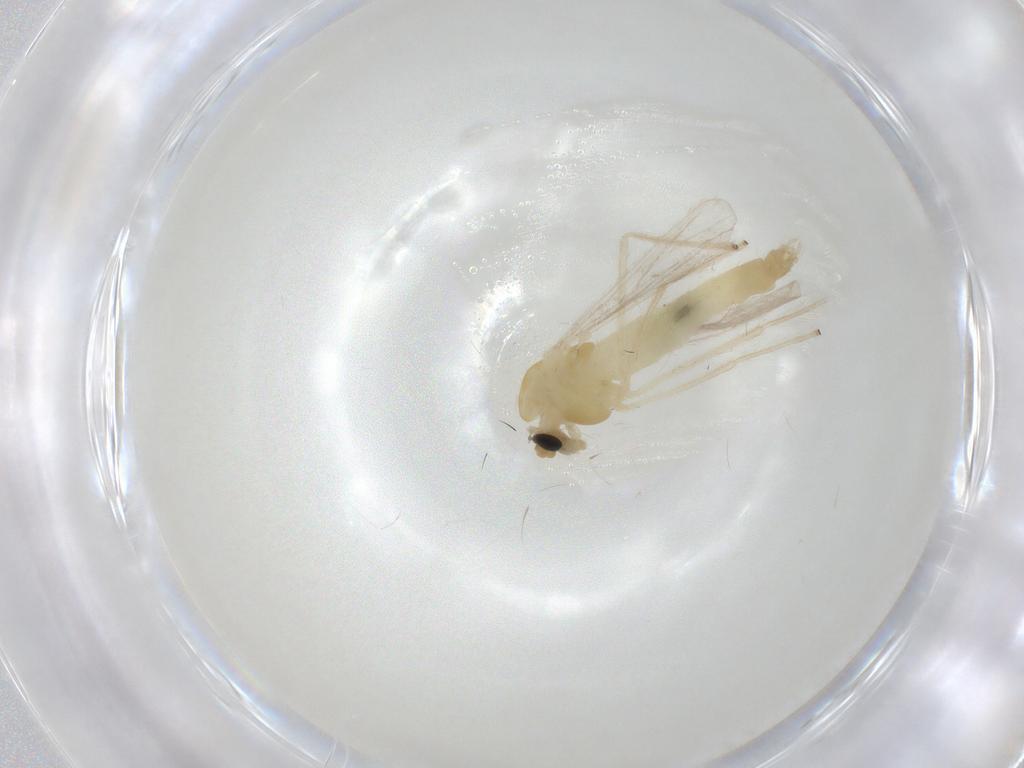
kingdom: Animalia
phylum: Arthropoda
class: Insecta
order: Diptera
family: Chironomidae
